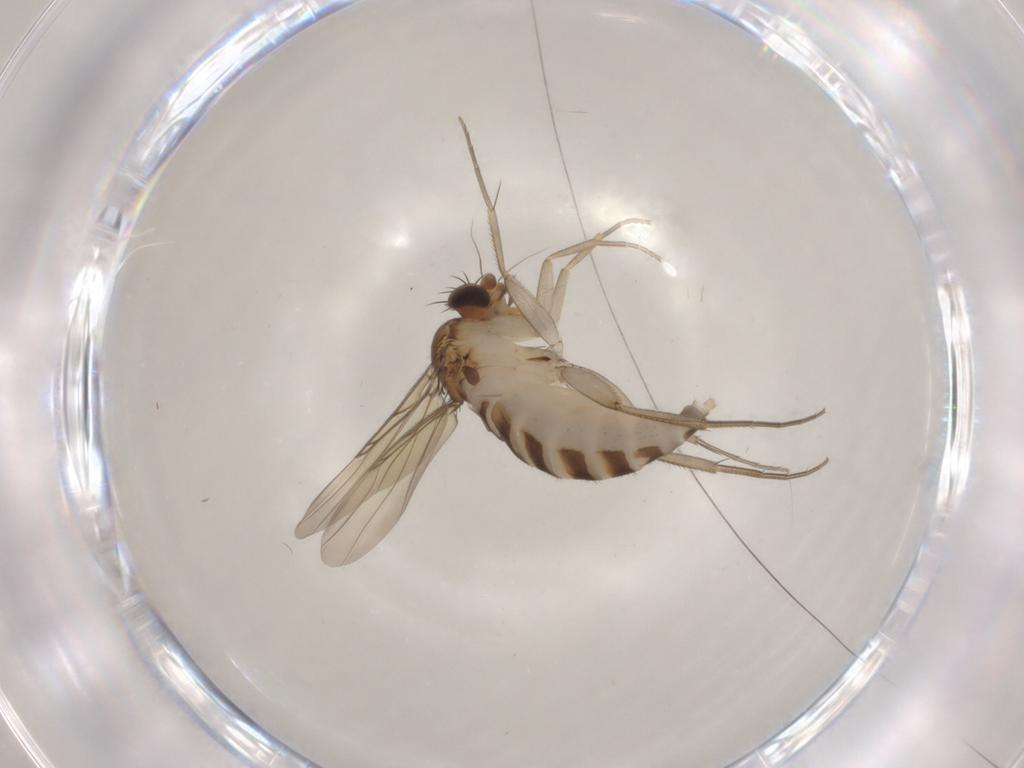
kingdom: Animalia
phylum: Arthropoda
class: Insecta
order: Diptera
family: Phoridae
